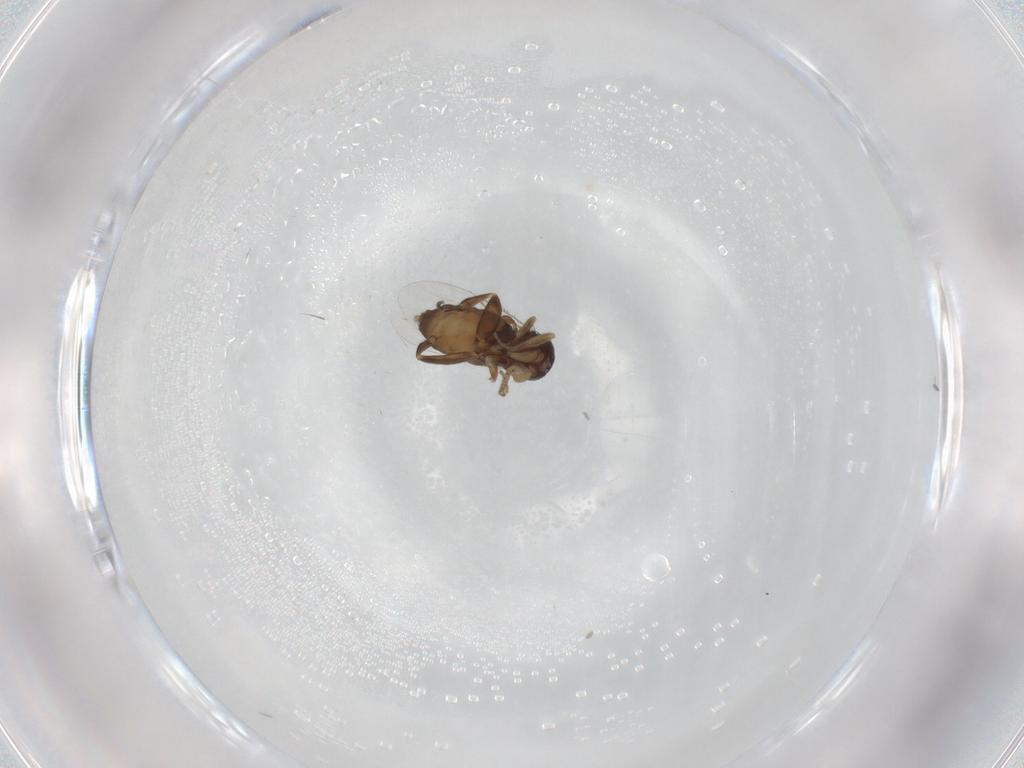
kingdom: Animalia
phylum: Arthropoda
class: Insecta
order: Diptera
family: Phoridae
